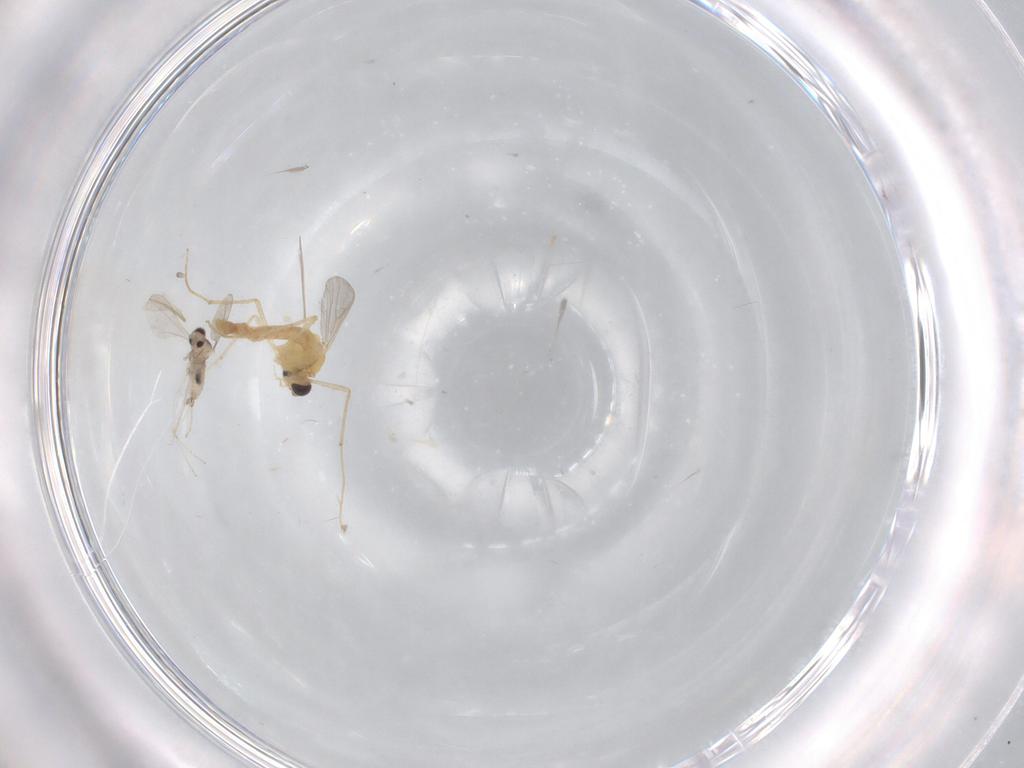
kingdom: Animalia
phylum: Arthropoda
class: Insecta
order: Diptera
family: Chironomidae
